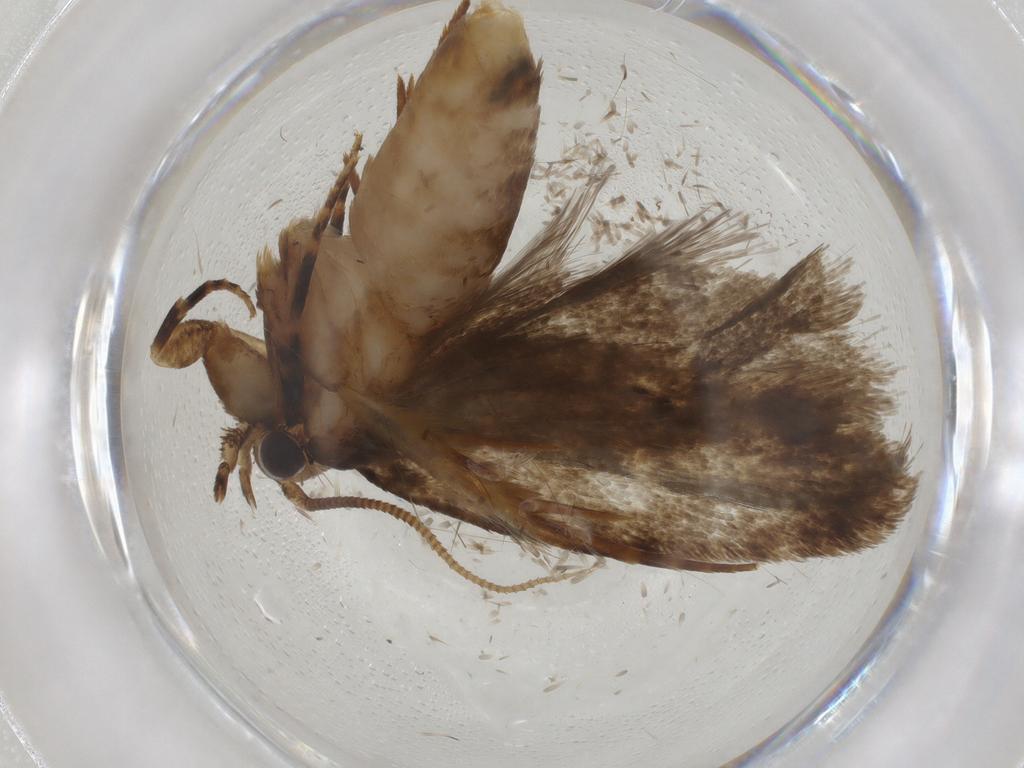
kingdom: Animalia
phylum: Arthropoda
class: Insecta
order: Lepidoptera
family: Nepticulidae
